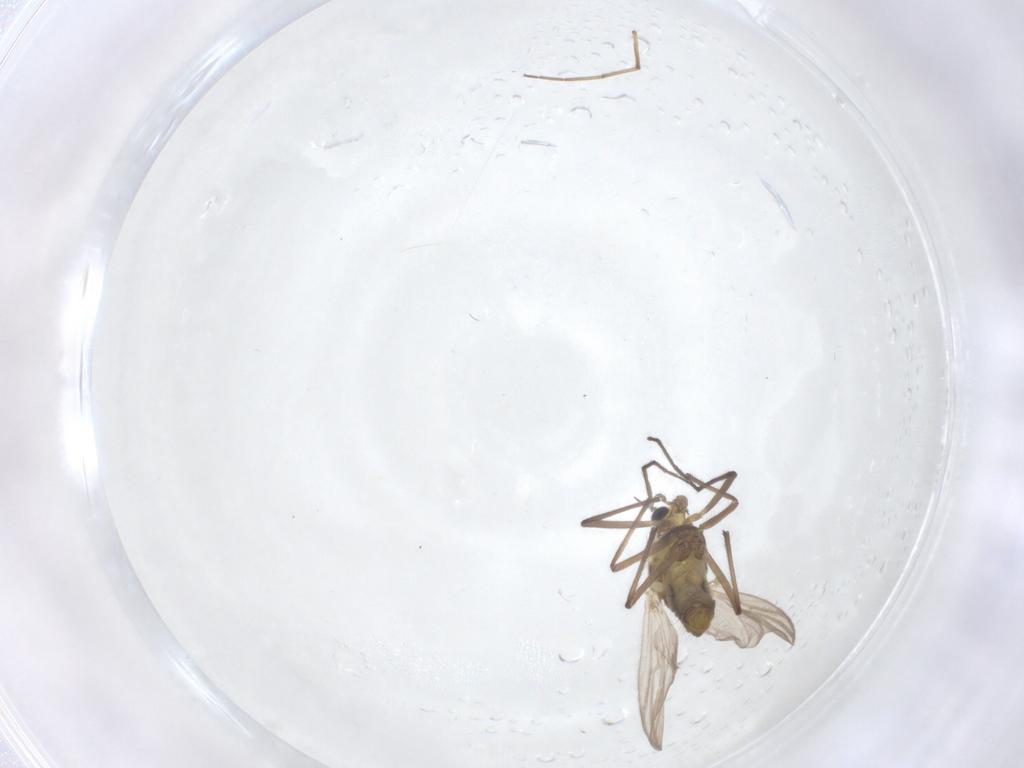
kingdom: Animalia
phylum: Arthropoda
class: Insecta
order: Diptera
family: Chironomidae
